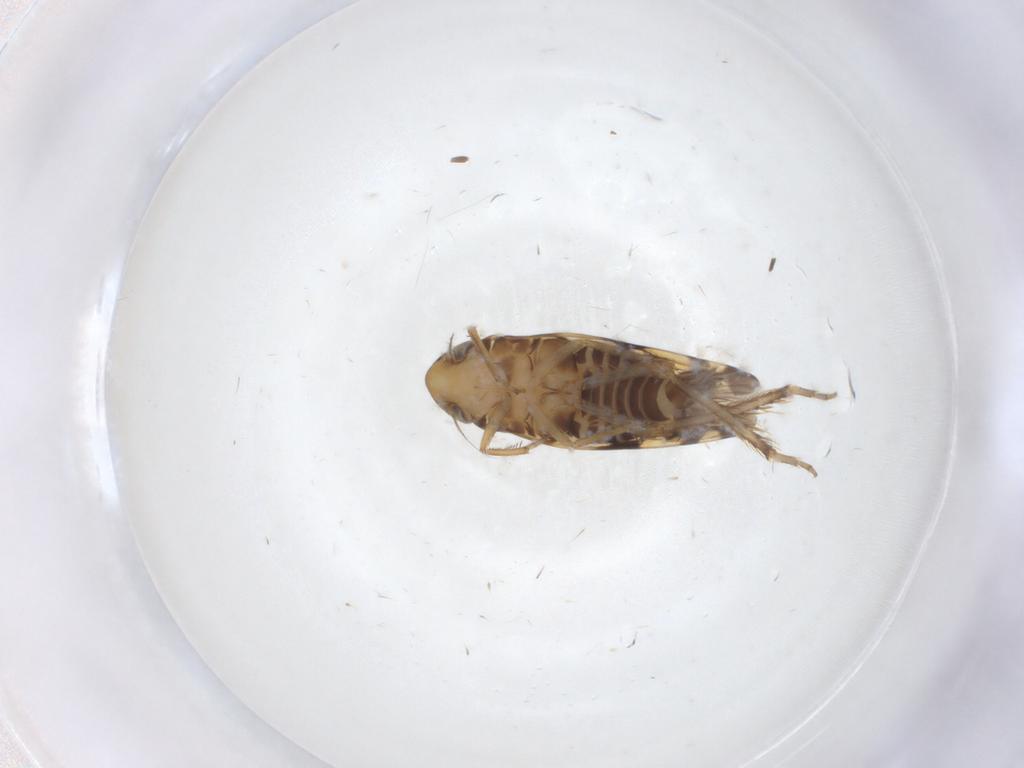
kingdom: Animalia
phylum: Arthropoda
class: Insecta
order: Hemiptera
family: Cicadellidae
